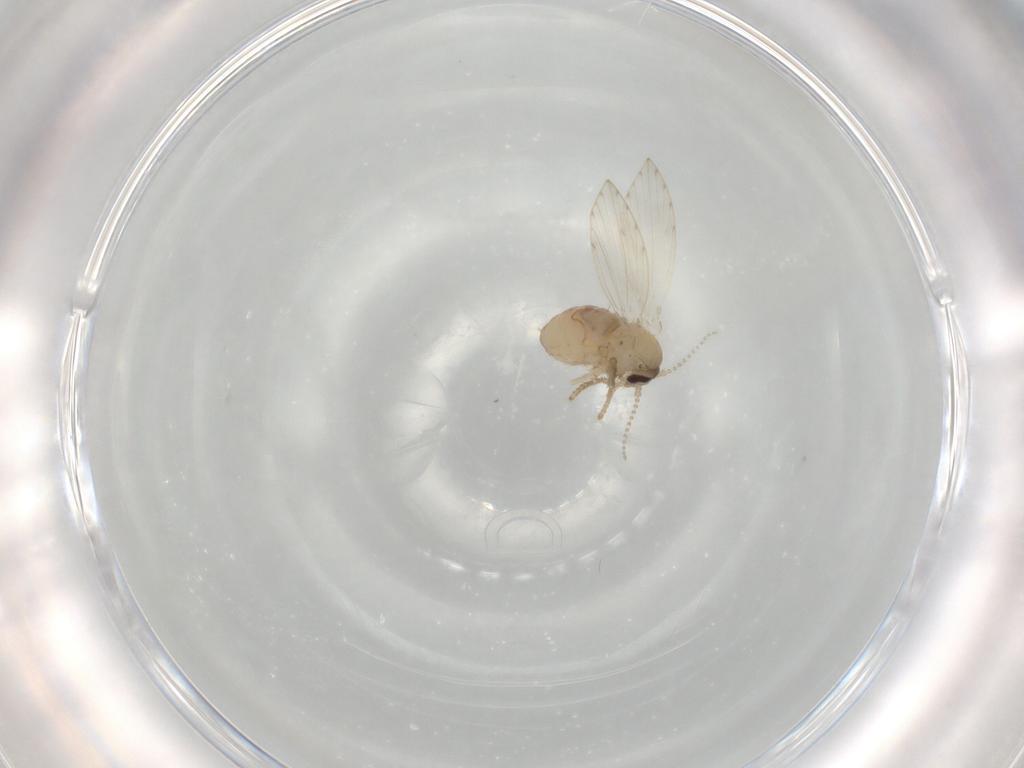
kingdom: Animalia
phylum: Arthropoda
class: Insecta
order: Diptera
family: Psychodidae
